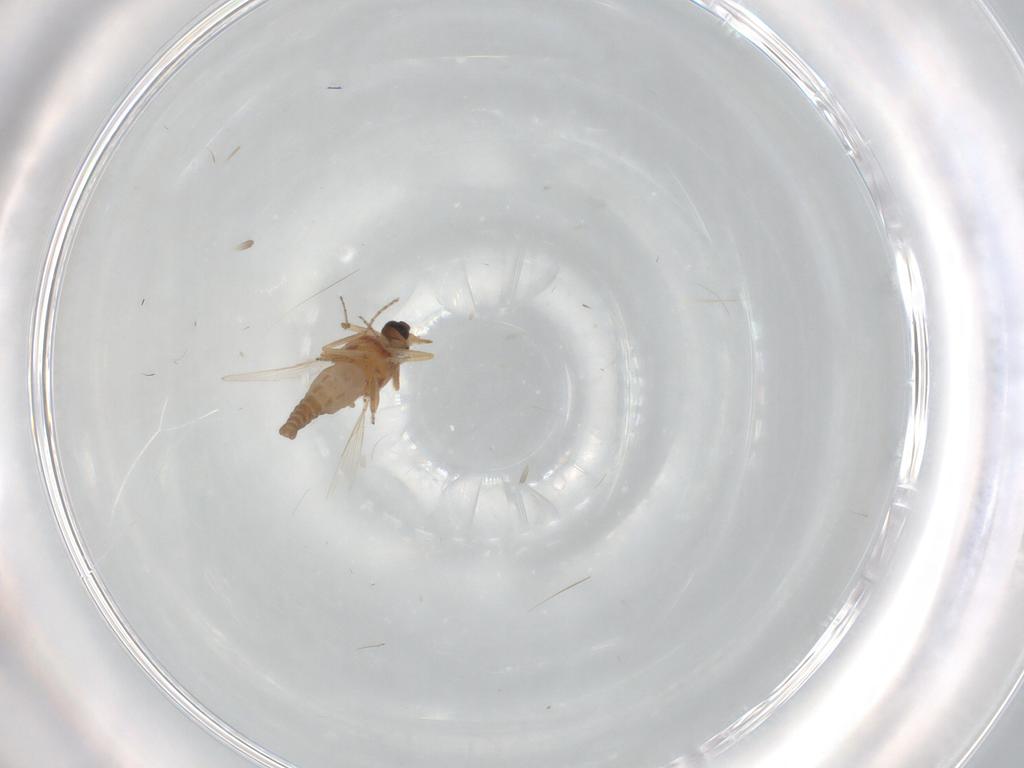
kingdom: Animalia
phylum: Arthropoda
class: Insecta
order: Diptera
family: Ceratopogonidae
